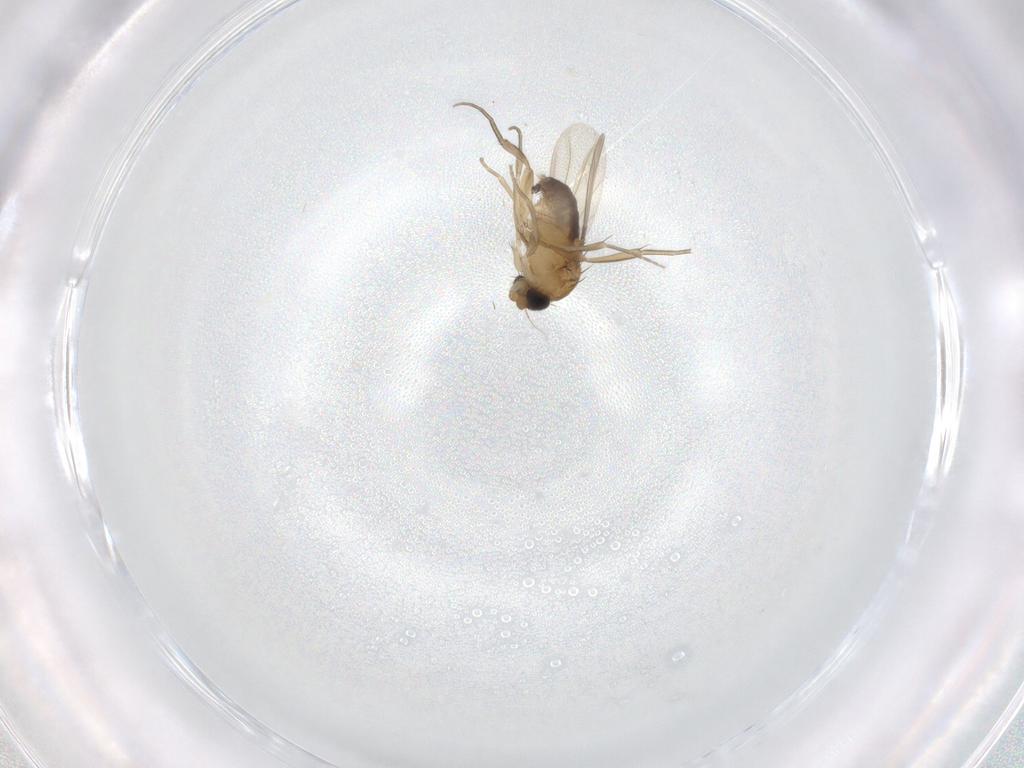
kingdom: Animalia
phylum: Arthropoda
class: Insecta
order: Diptera
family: Phoridae
